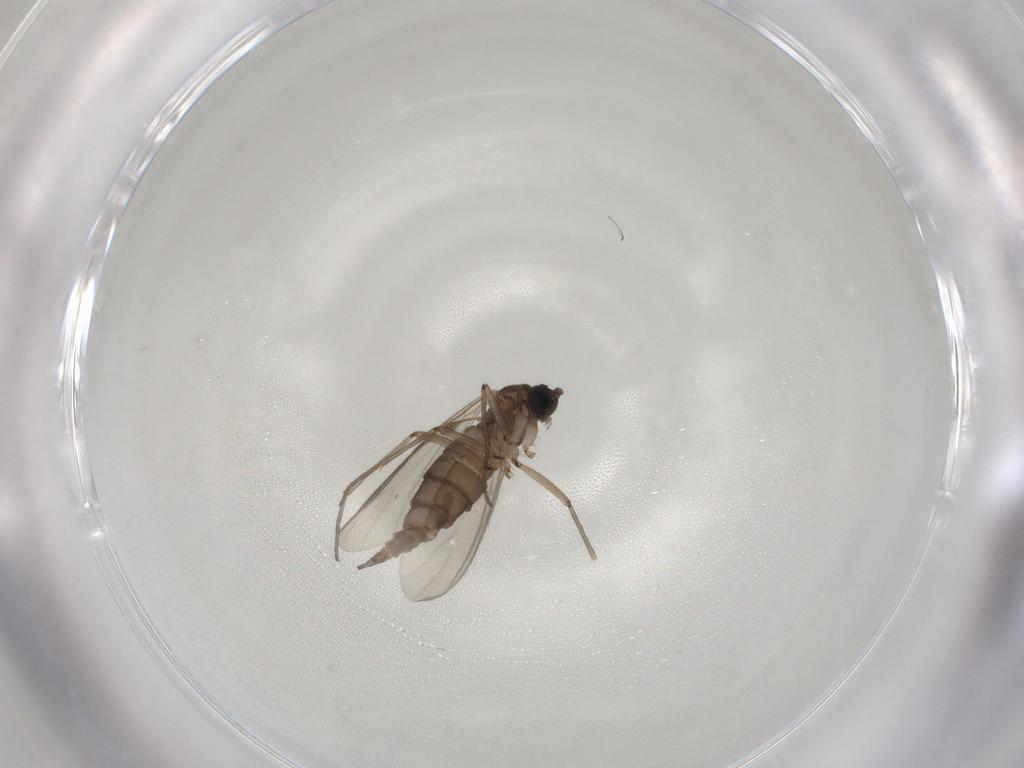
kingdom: Animalia
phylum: Arthropoda
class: Insecta
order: Diptera
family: Sciaridae
